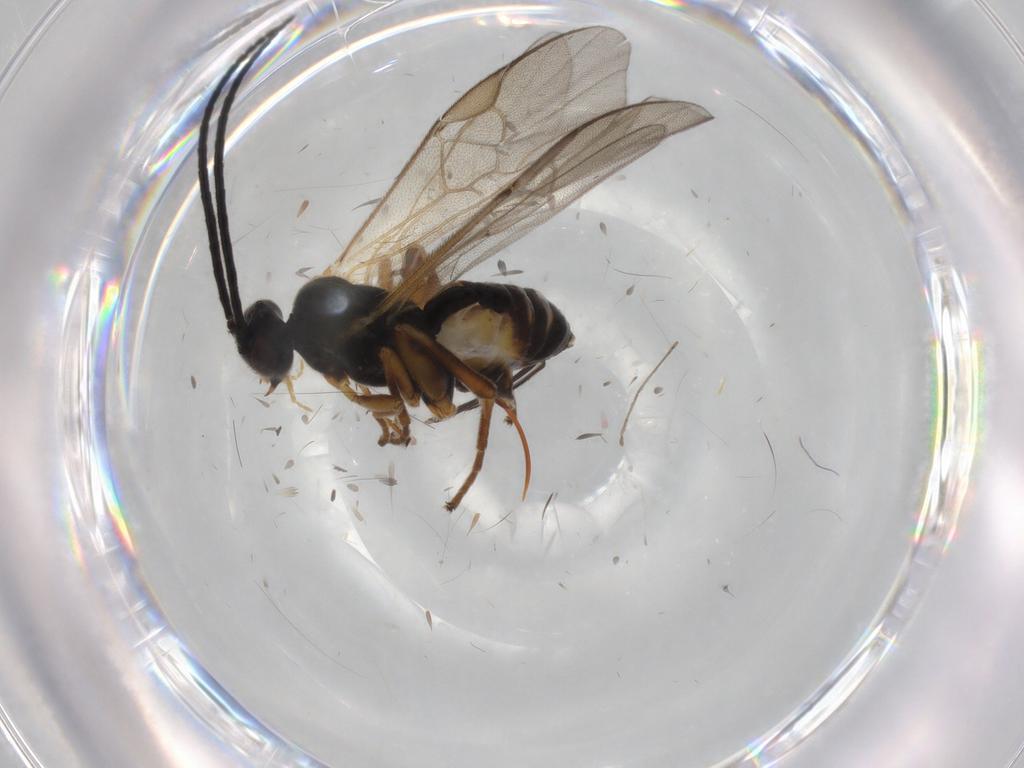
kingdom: Animalia
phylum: Arthropoda
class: Insecta
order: Hymenoptera
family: Braconidae
